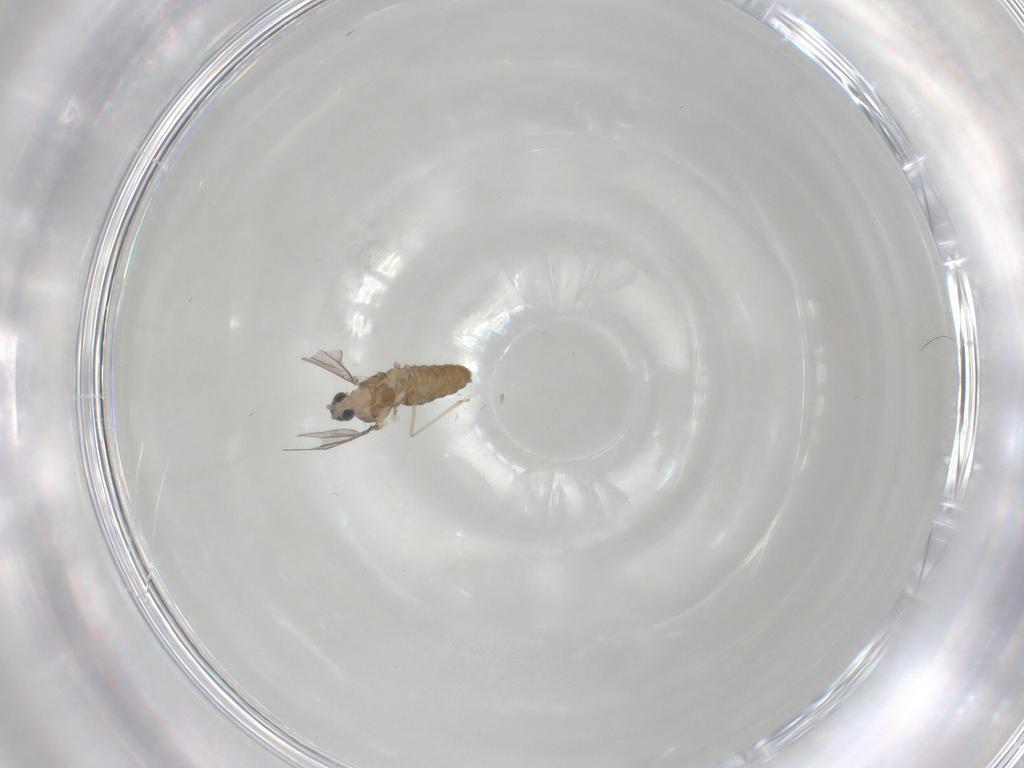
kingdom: Animalia
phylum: Arthropoda
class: Insecta
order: Diptera
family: Cecidomyiidae
